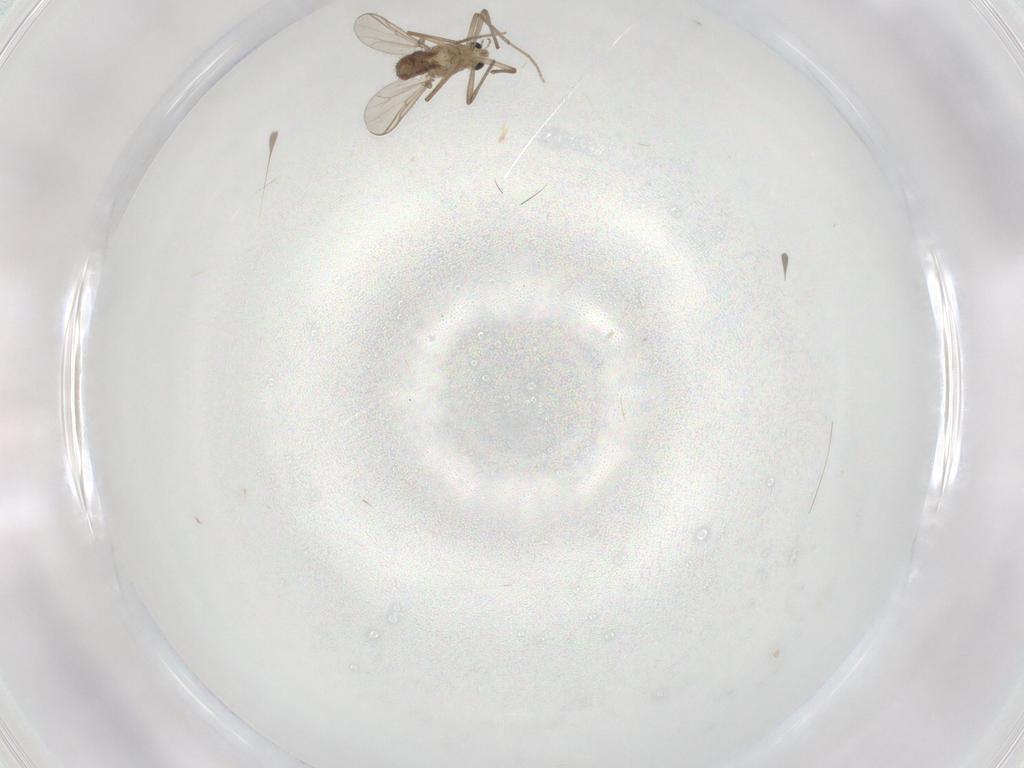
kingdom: Animalia
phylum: Arthropoda
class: Insecta
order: Diptera
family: Chironomidae
